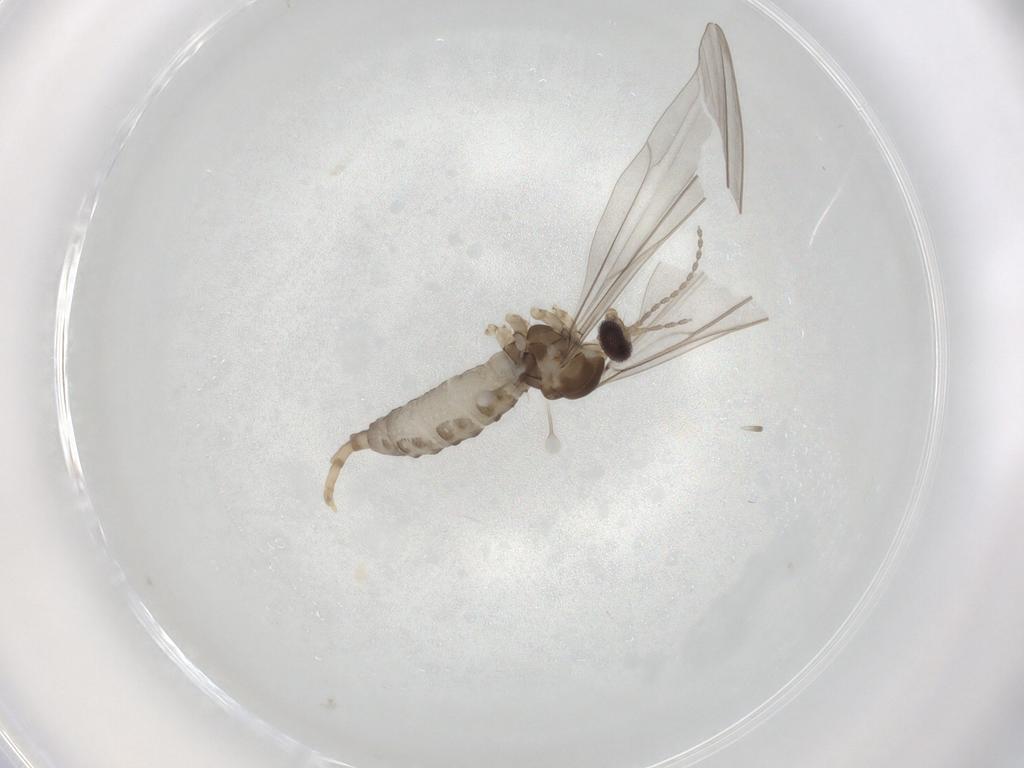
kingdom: Animalia
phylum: Arthropoda
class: Insecta
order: Diptera
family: Cecidomyiidae
